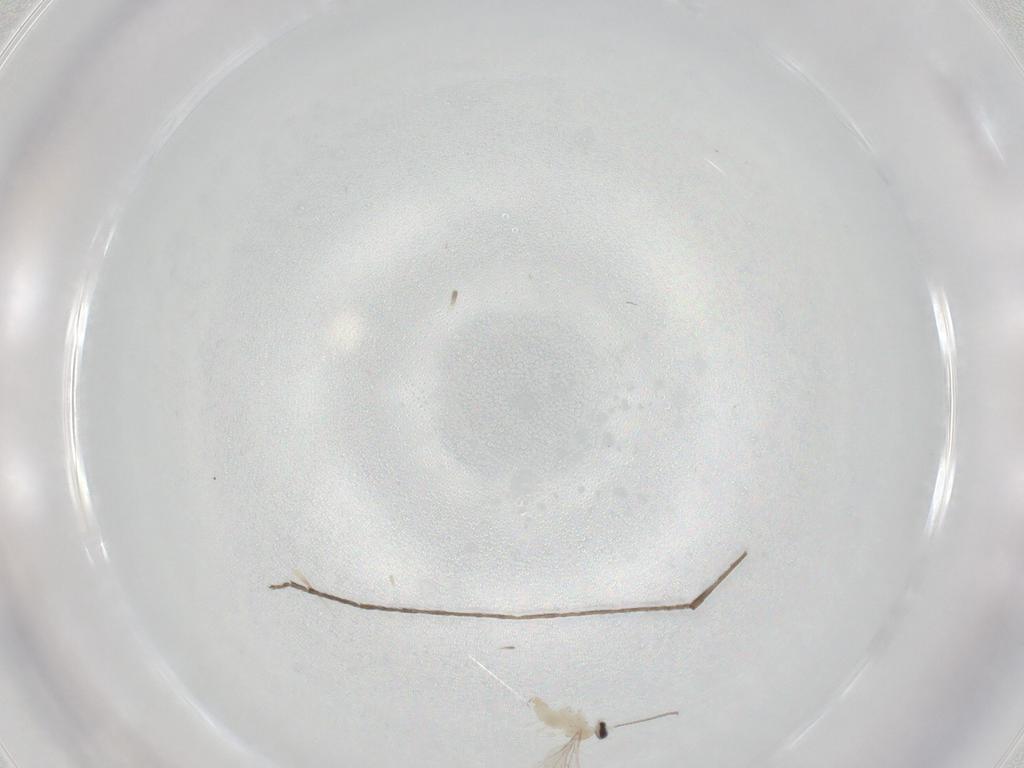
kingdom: Animalia
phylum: Arthropoda
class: Insecta
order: Diptera
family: Cecidomyiidae
